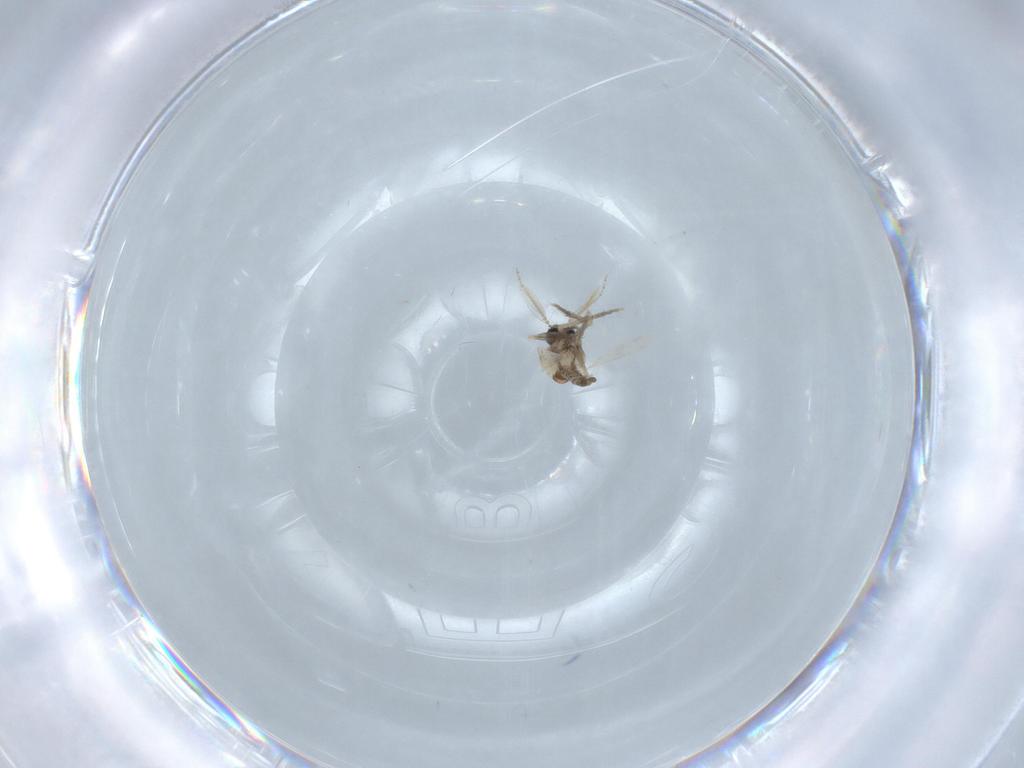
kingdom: Animalia
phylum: Arthropoda
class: Insecta
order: Diptera
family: Ceratopogonidae
